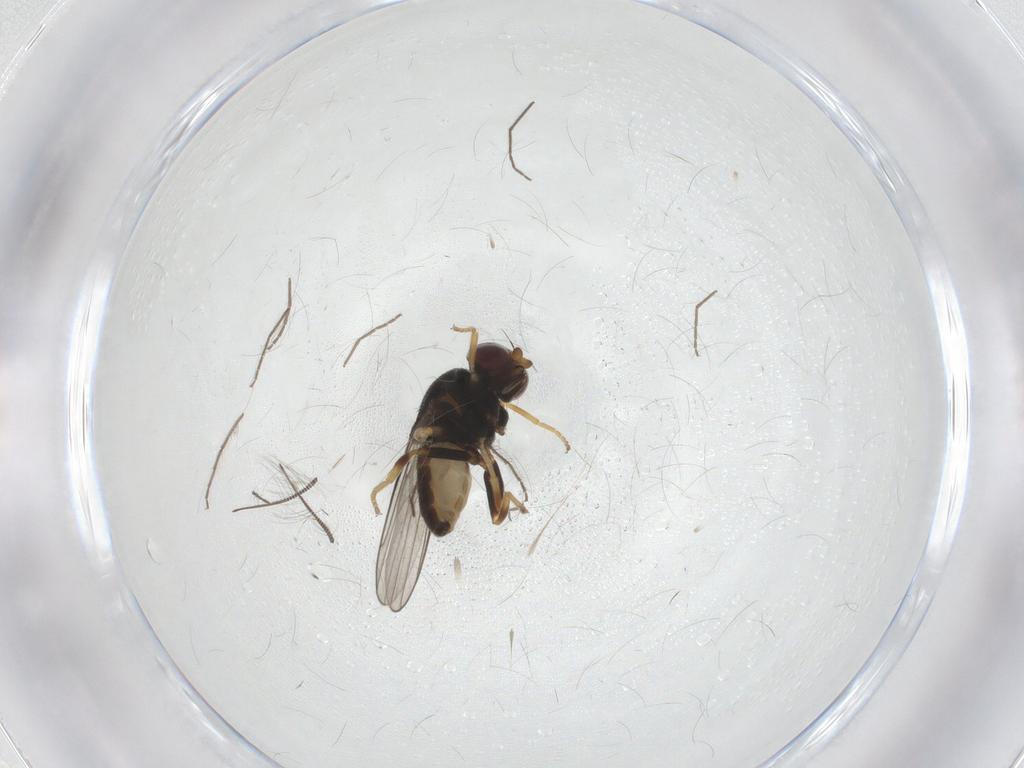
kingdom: Animalia
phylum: Arthropoda
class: Insecta
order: Diptera
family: Chloropidae
